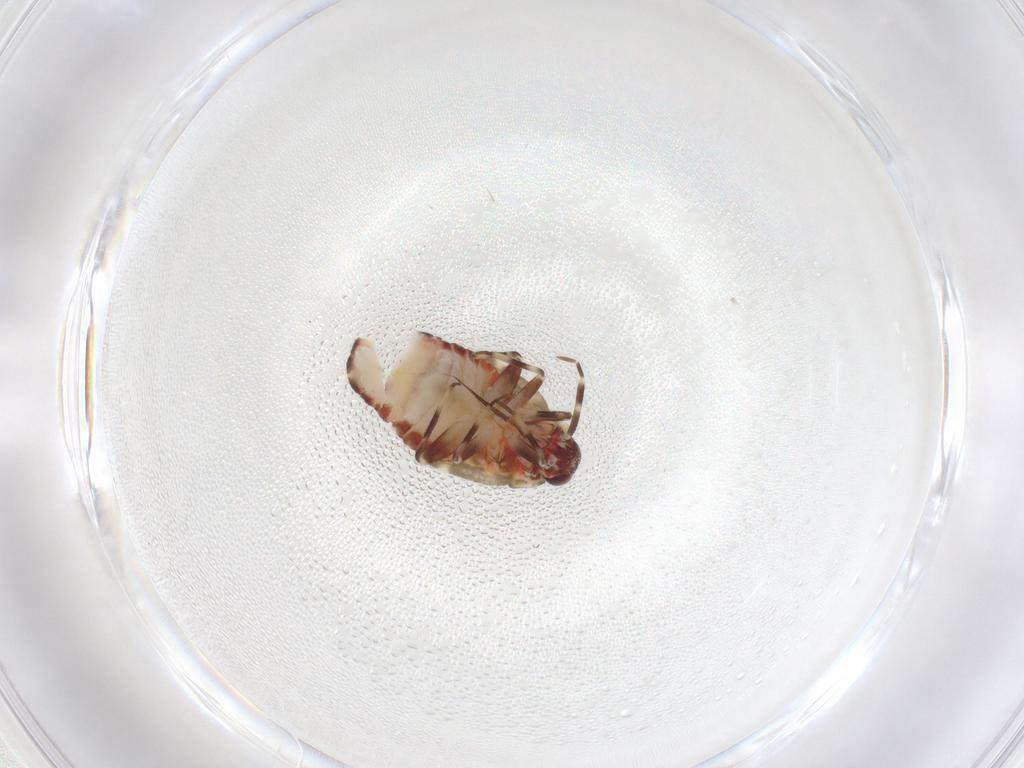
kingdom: Animalia
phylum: Arthropoda
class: Insecta
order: Hemiptera
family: Miridae
